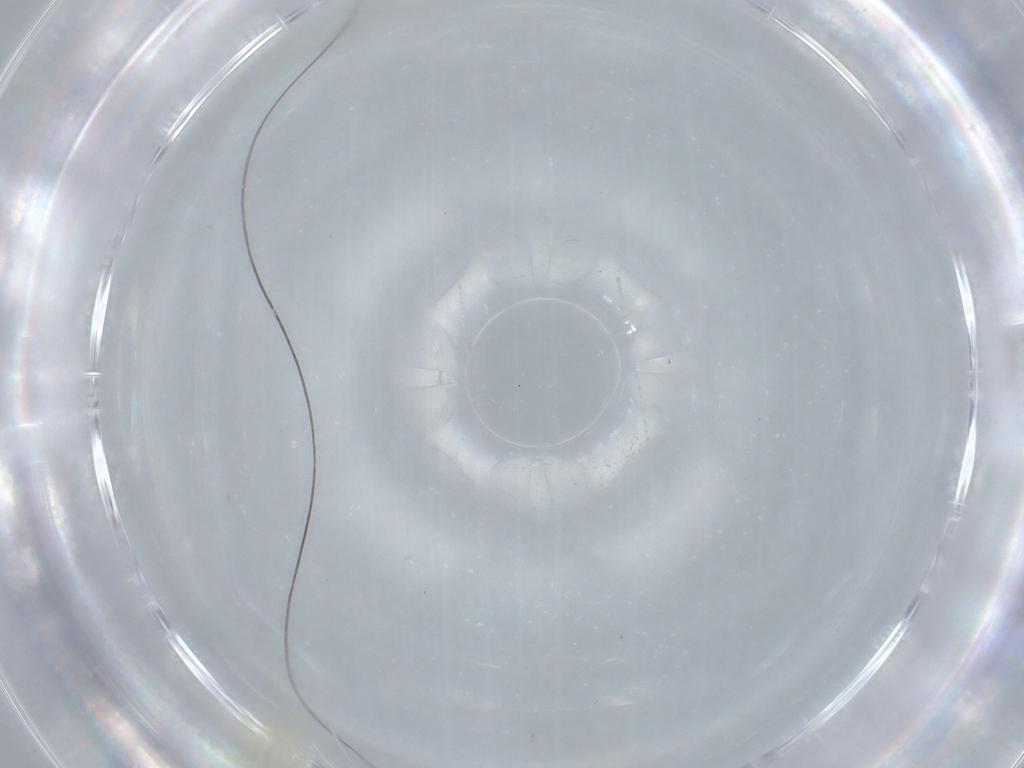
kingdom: Animalia
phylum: Arthropoda
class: Insecta
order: Hemiptera
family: Aleyrodidae
